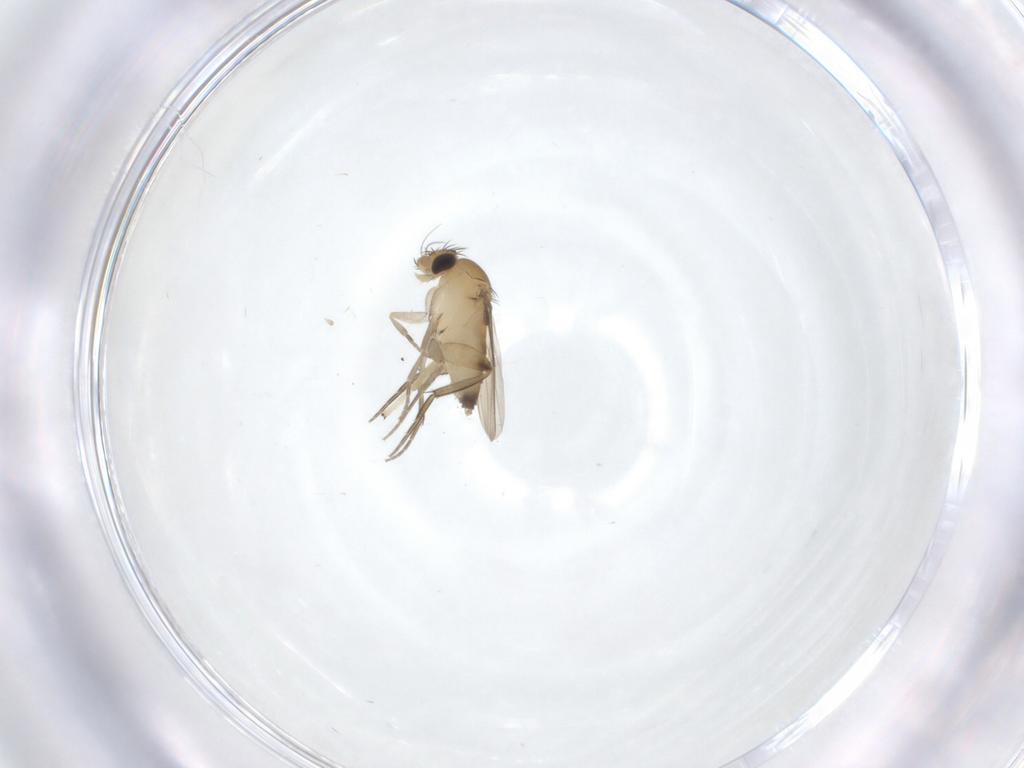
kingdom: Animalia
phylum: Arthropoda
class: Insecta
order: Diptera
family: Phoridae
